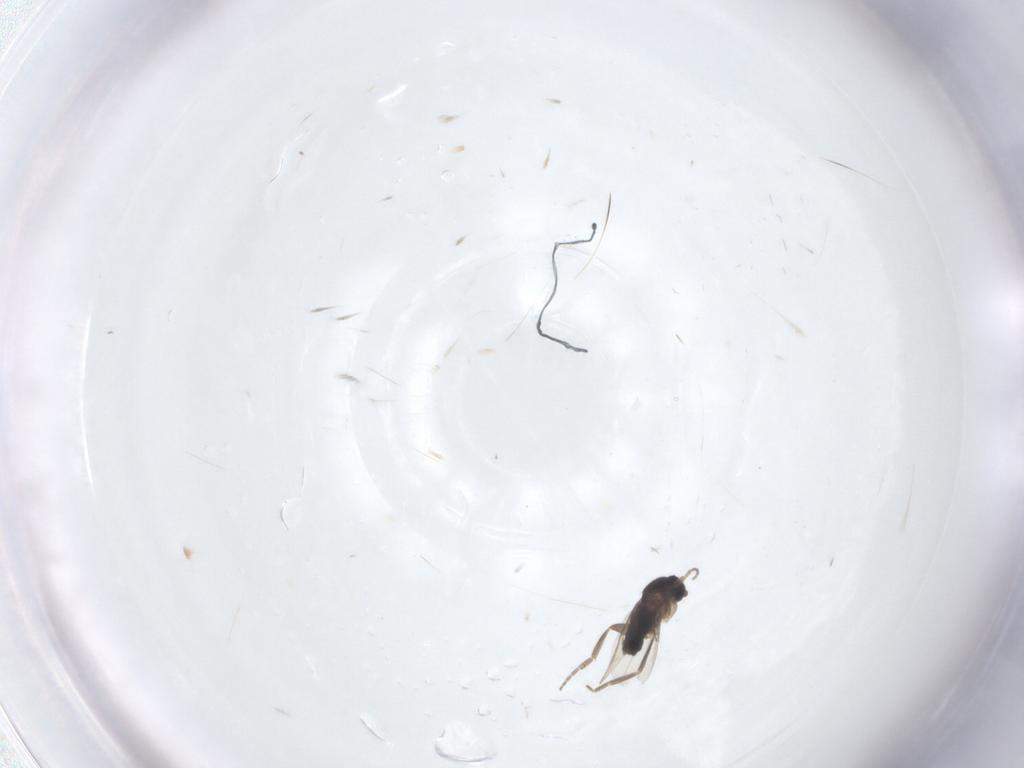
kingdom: Animalia
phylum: Arthropoda
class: Insecta
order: Diptera
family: Phoridae
